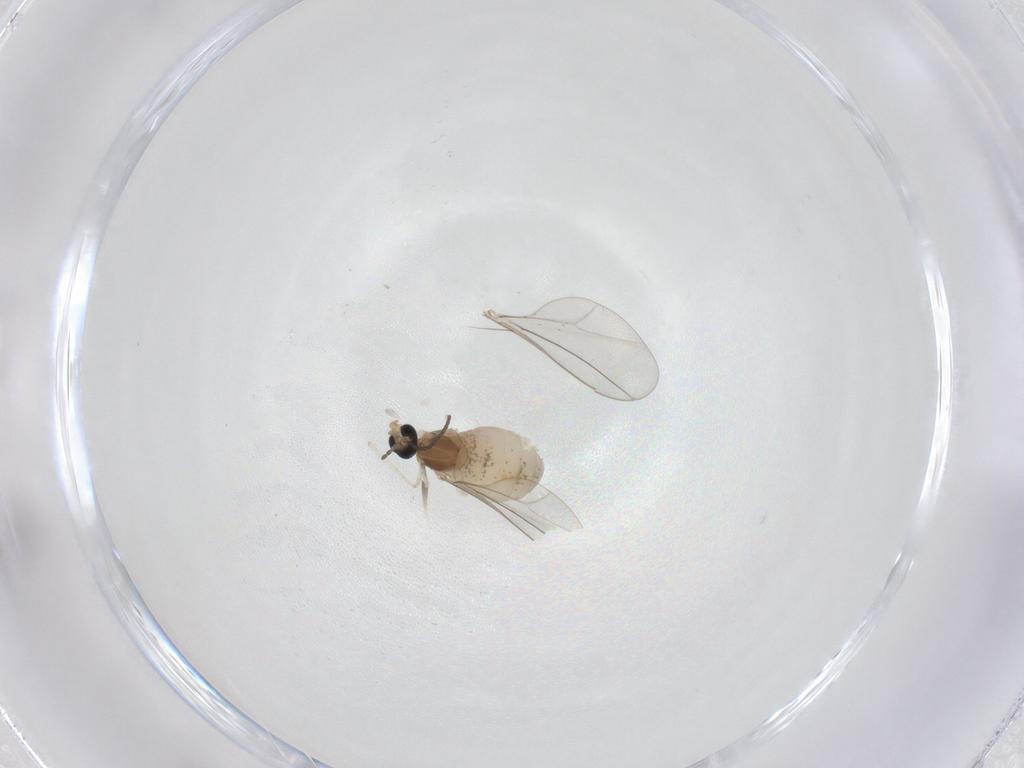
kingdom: Animalia
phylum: Arthropoda
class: Insecta
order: Diptera
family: Cecidomyiidae
